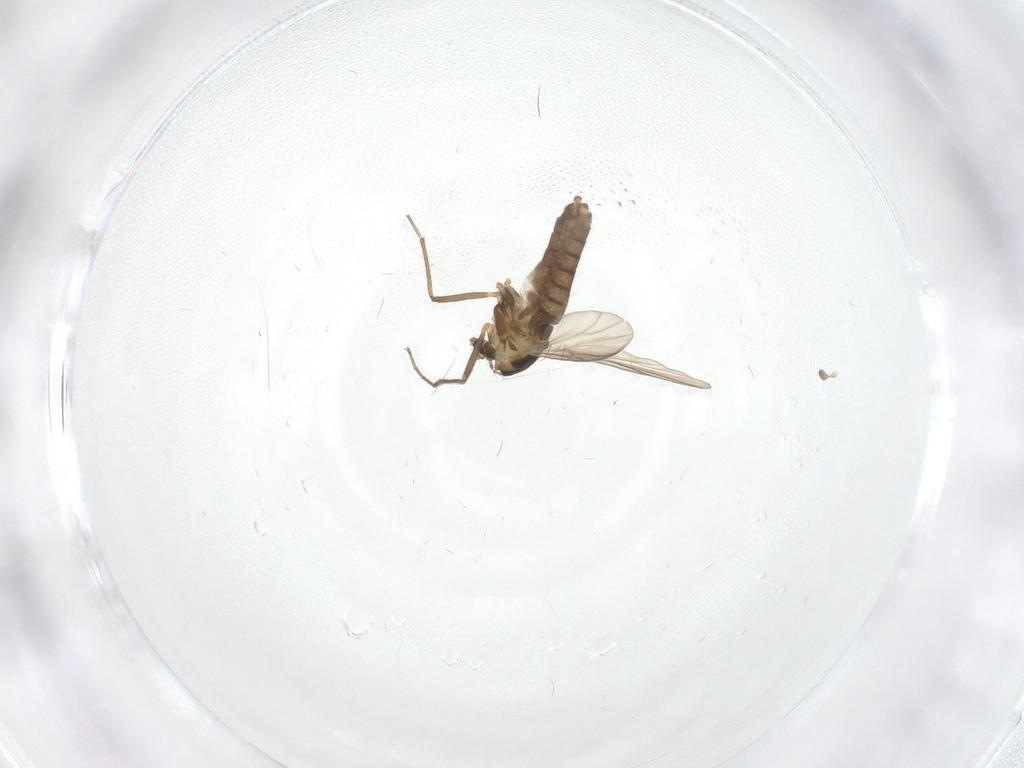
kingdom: Animalia
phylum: Arthropoda
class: Insecta
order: Diptera
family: Chironomidae
